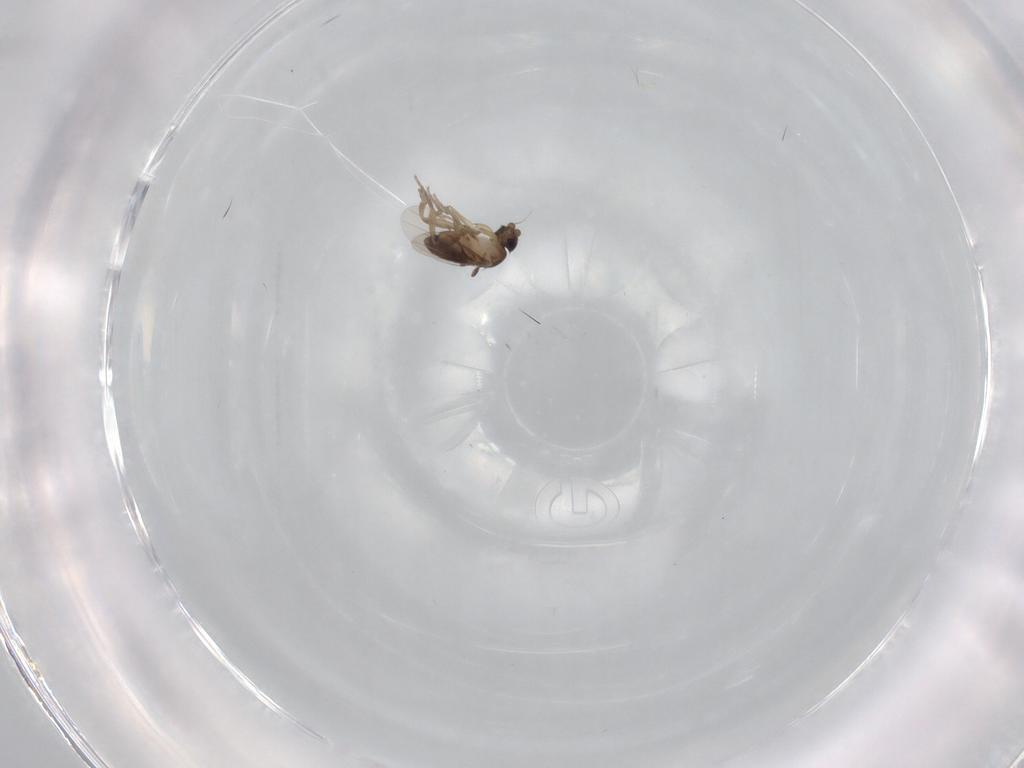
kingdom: Animalia
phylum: Arthropoda
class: Insecta
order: Diptera
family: Phoridae
